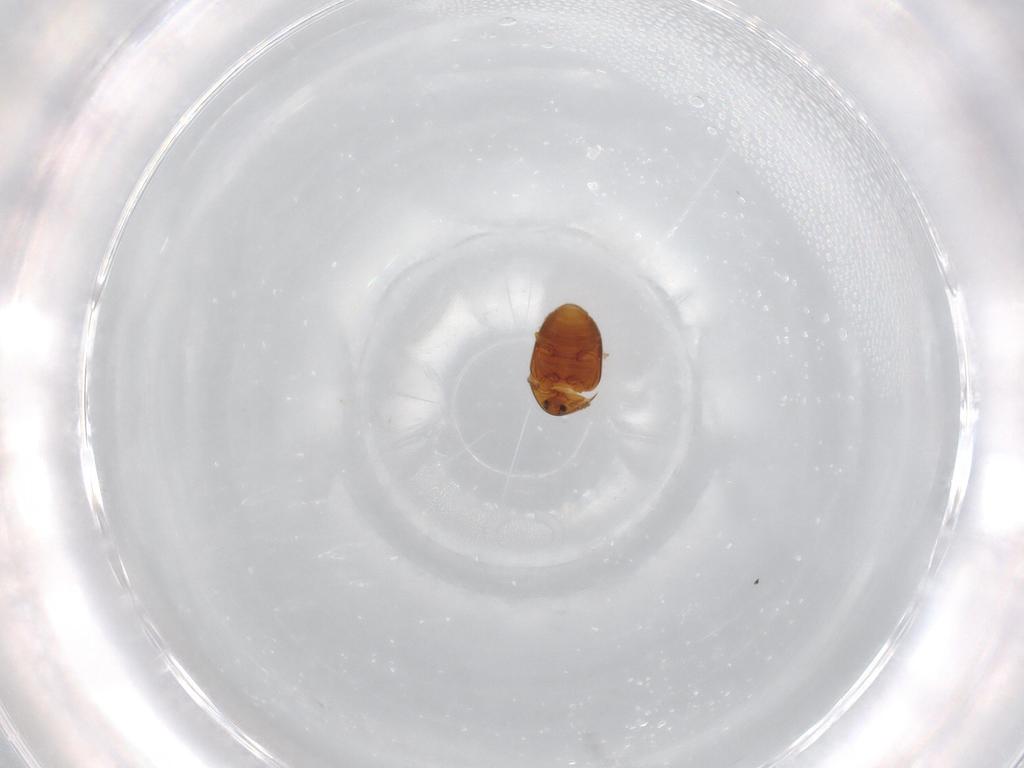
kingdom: Animalia
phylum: Arthropoda
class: Insecta
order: Coleoptera
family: Corylophidae
